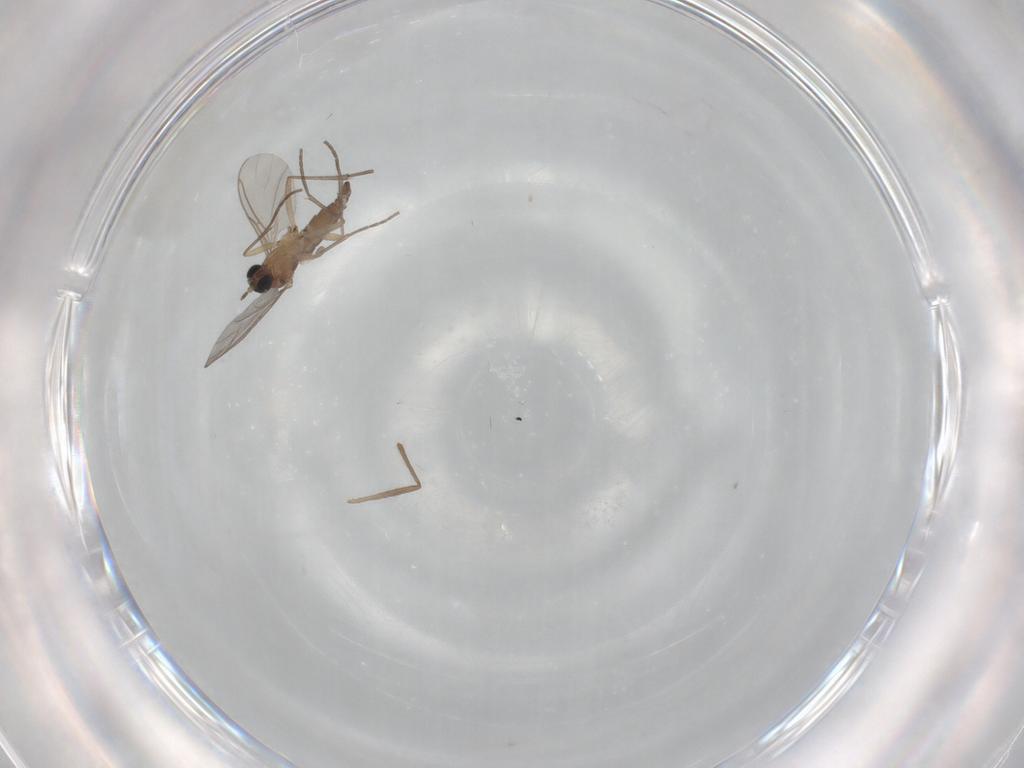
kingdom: Animalia
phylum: Arthropoda
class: Insecta
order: Diptera
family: Sciaridae
